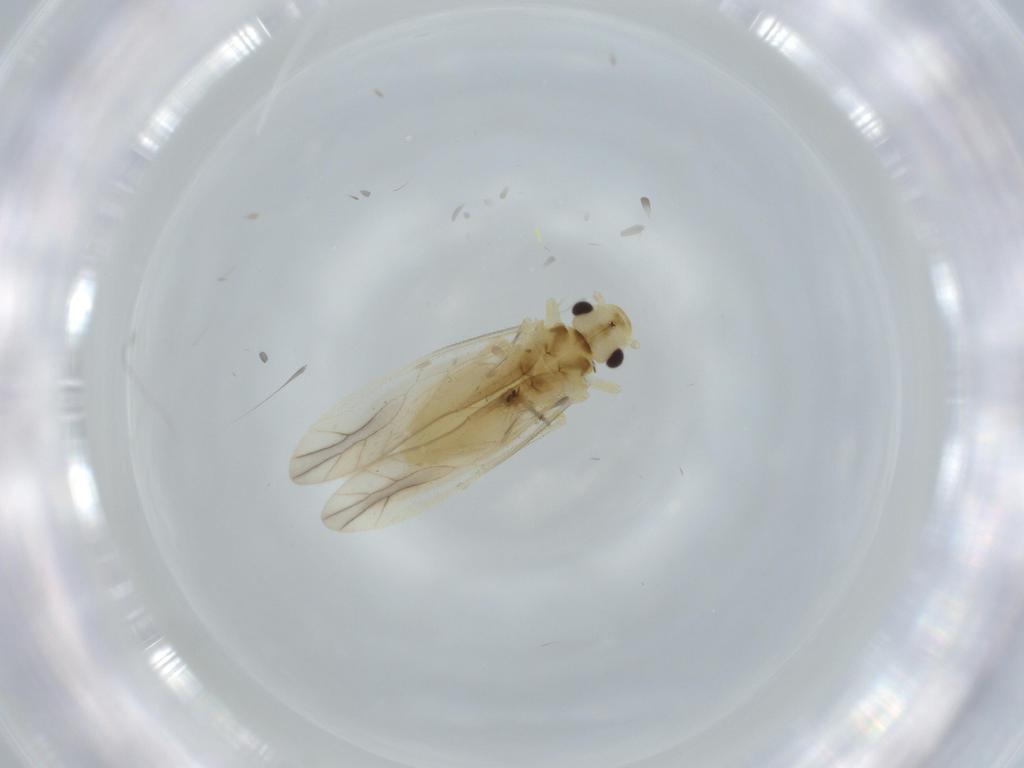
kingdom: Animalia
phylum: Arthropoda
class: Insecta
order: Psocodea
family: Caeciliusidae
